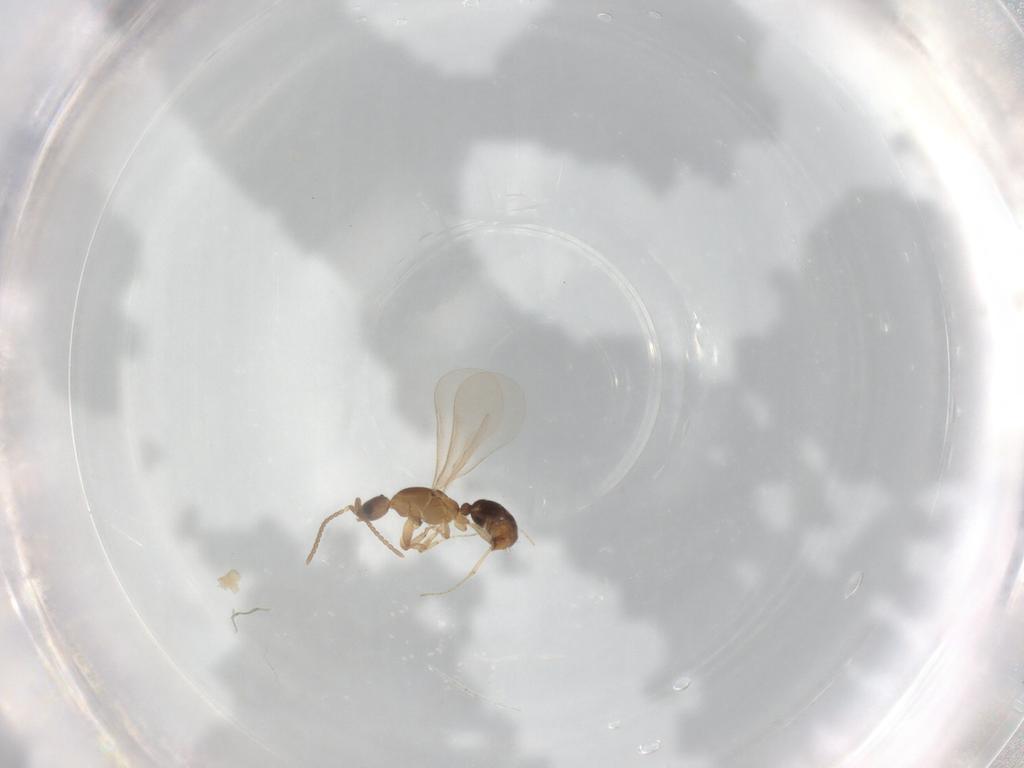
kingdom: Animalia
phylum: Arthropoda
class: Insecta
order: Hymenoptera
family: Formicidae
